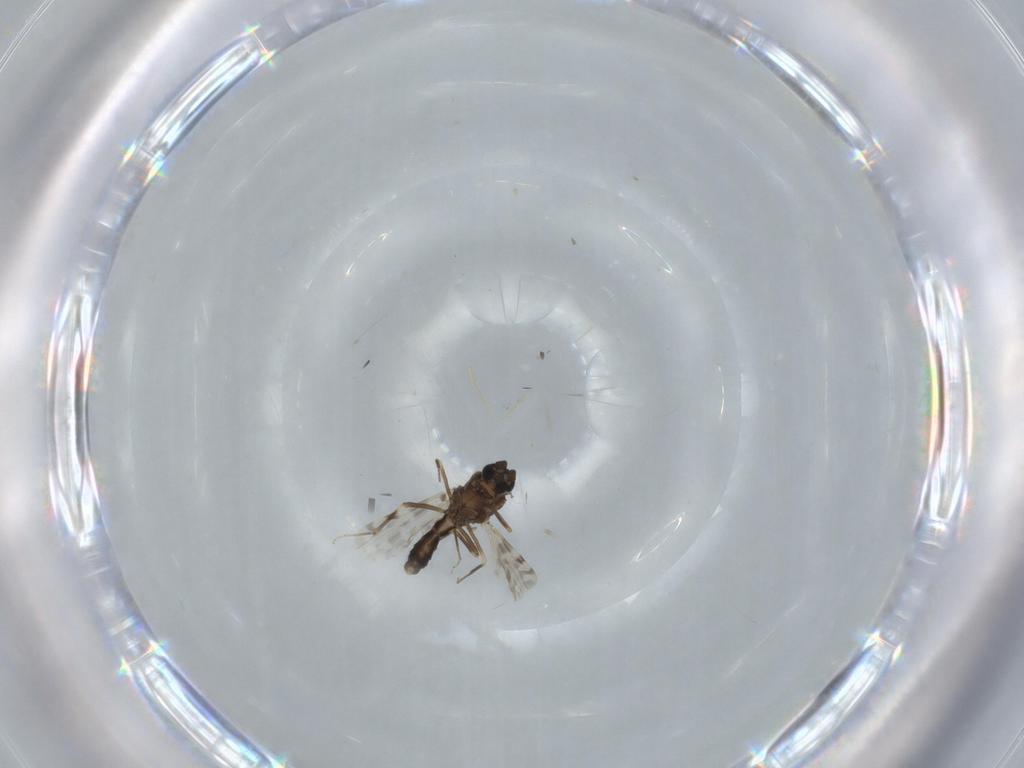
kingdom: Animalia
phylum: Arthropoda
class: Insecta
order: Diptera
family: Ceratopogonidae
